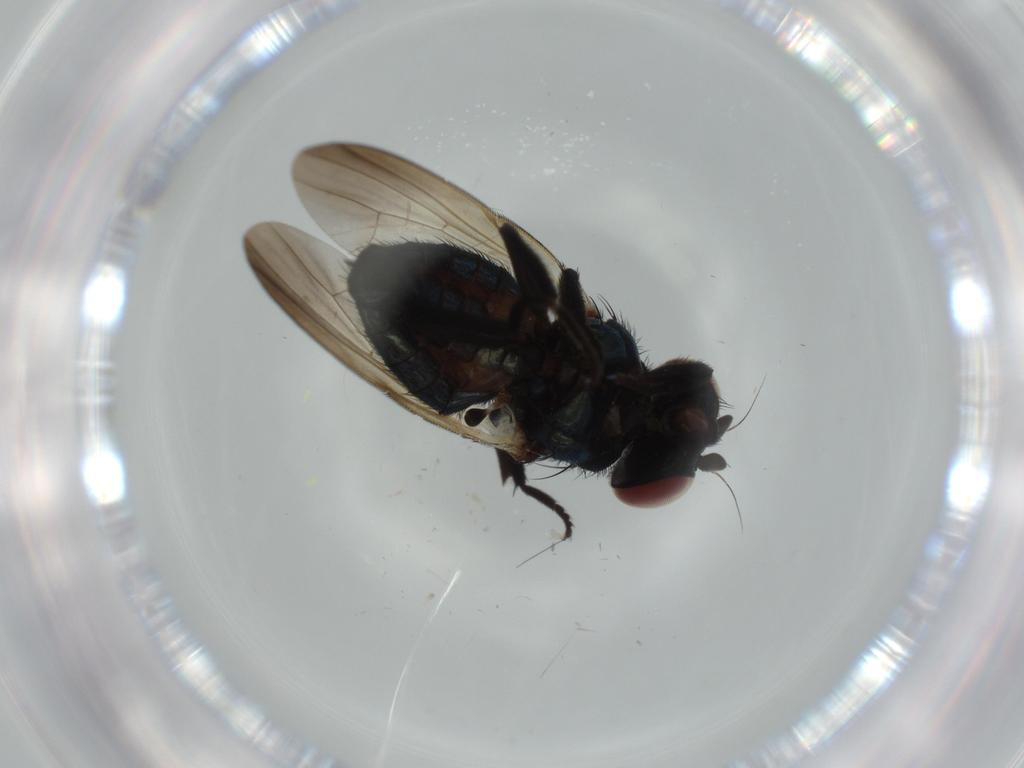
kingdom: Animalia
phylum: Arthropoda
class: Insecta
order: Diptera
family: Lonchaeidae
